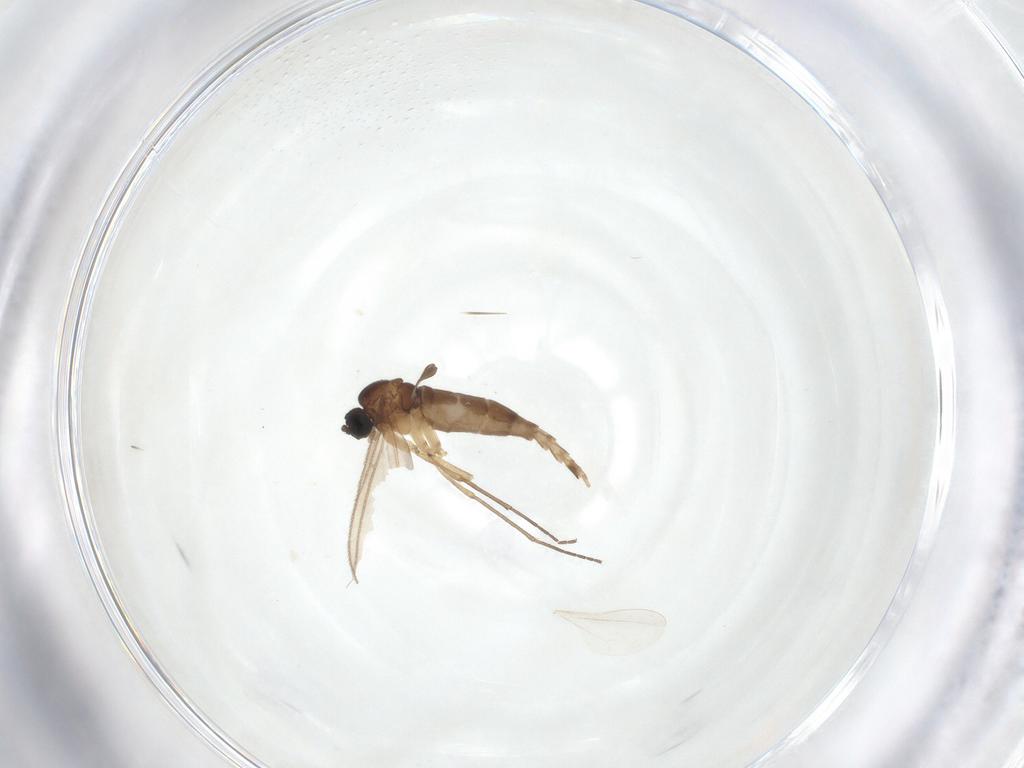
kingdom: Animalia
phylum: Arthropoda
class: Insecta
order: Diptera
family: Sciaridae
